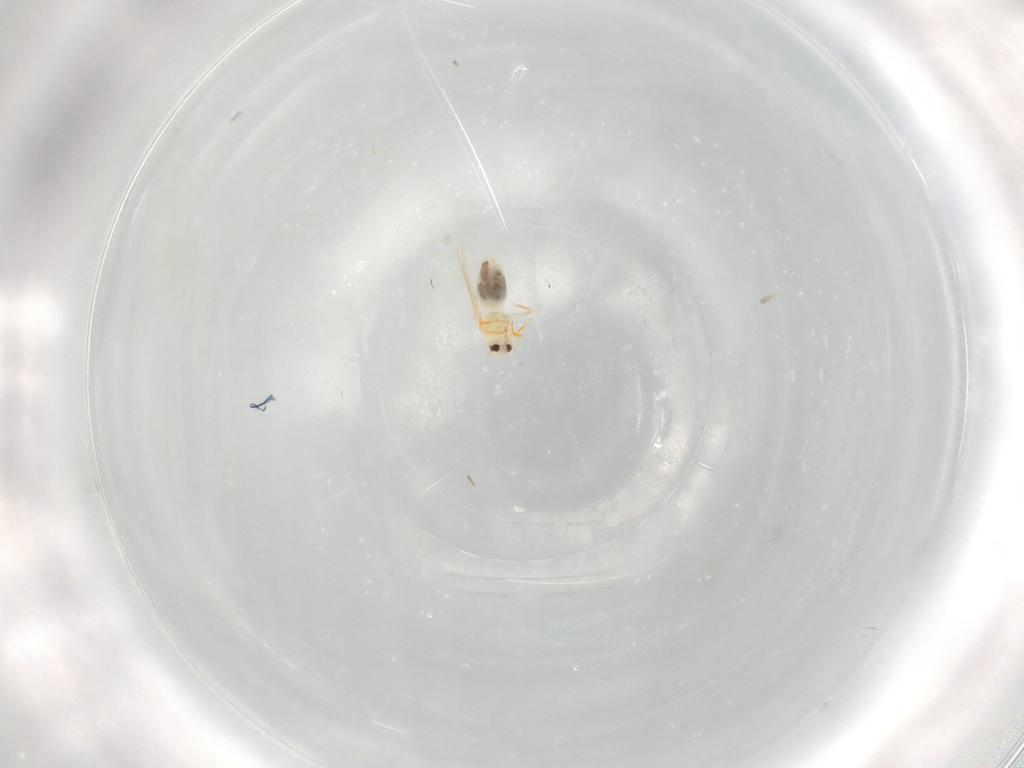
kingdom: Animalia
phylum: Arthropoda
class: Insecta
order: Diptera
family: Chironomidae
